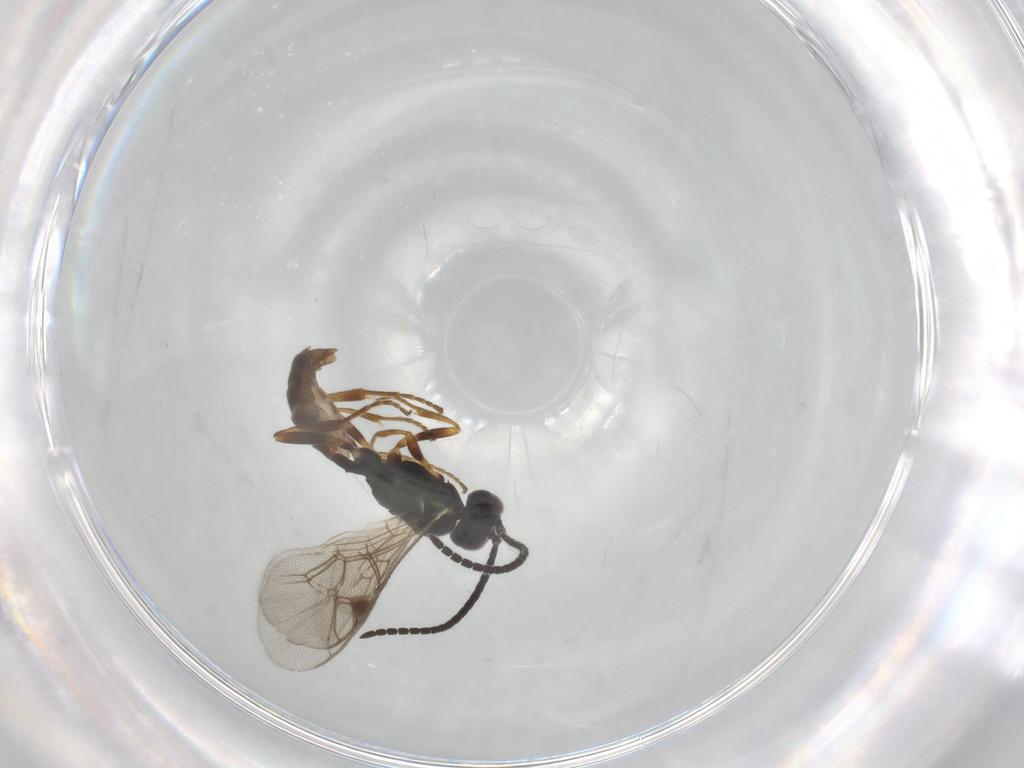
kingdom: Animalia
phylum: Arthropoda
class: Insecta
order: Hymenoptera
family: Ichneumonidae
